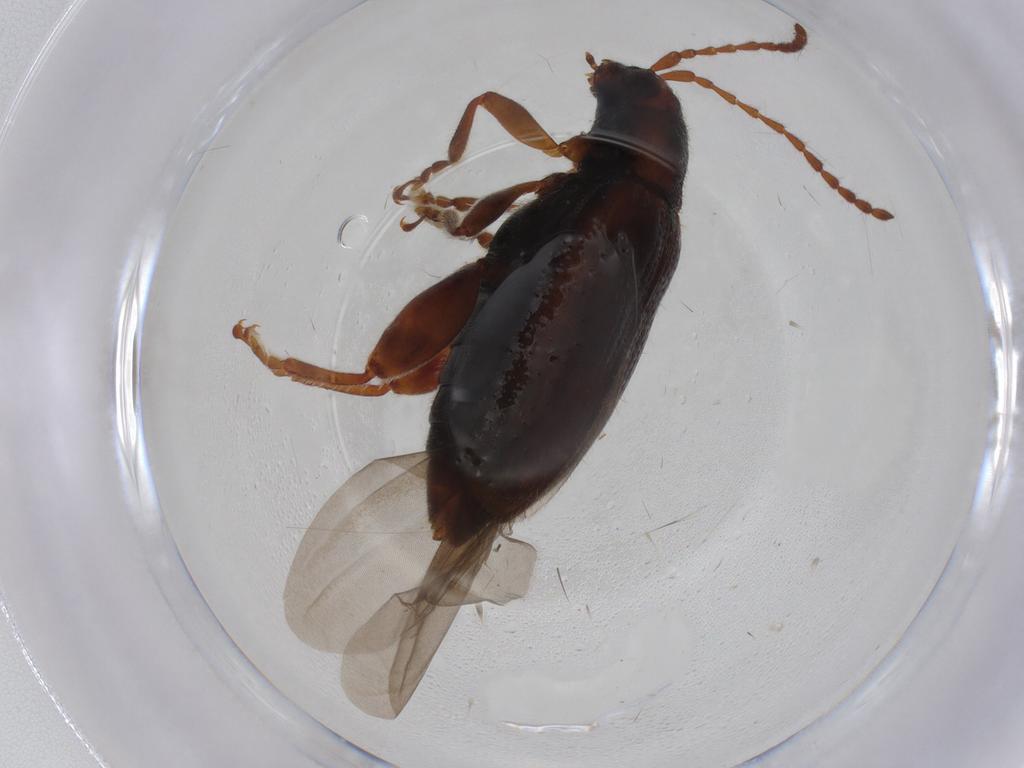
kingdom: Animalia
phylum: Arthropoda
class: Insecta
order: Coleoptera
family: Chrysomelidae
